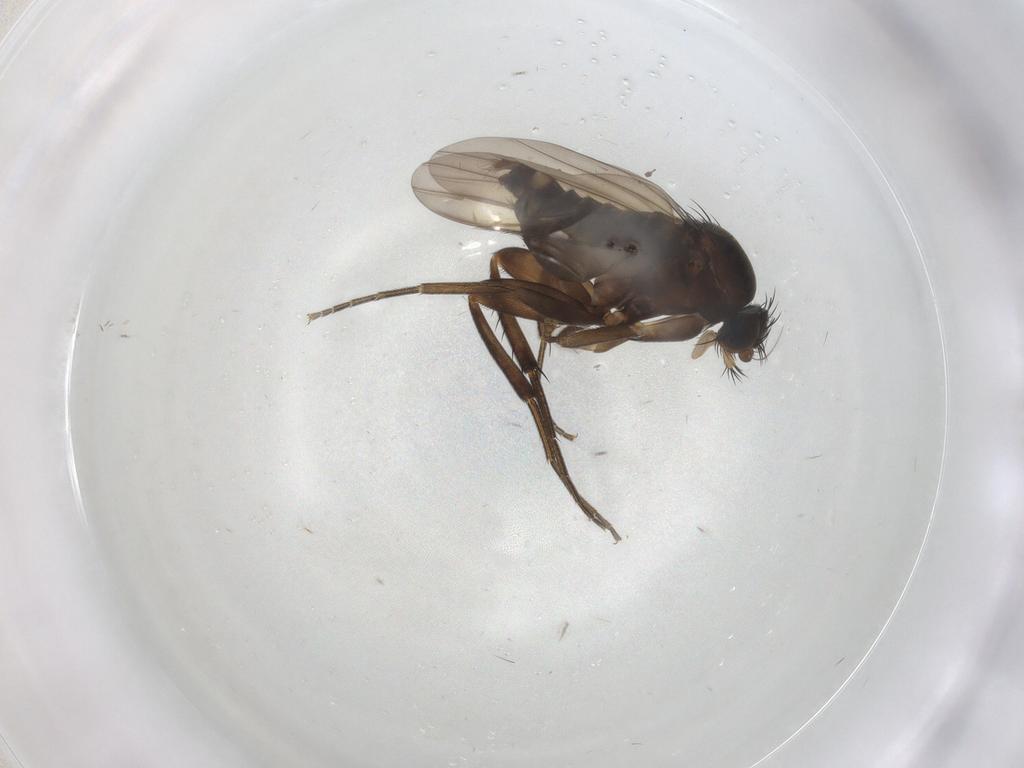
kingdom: Animalia
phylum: Arthropoda
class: Insecta
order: Diptera
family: Phoridae
